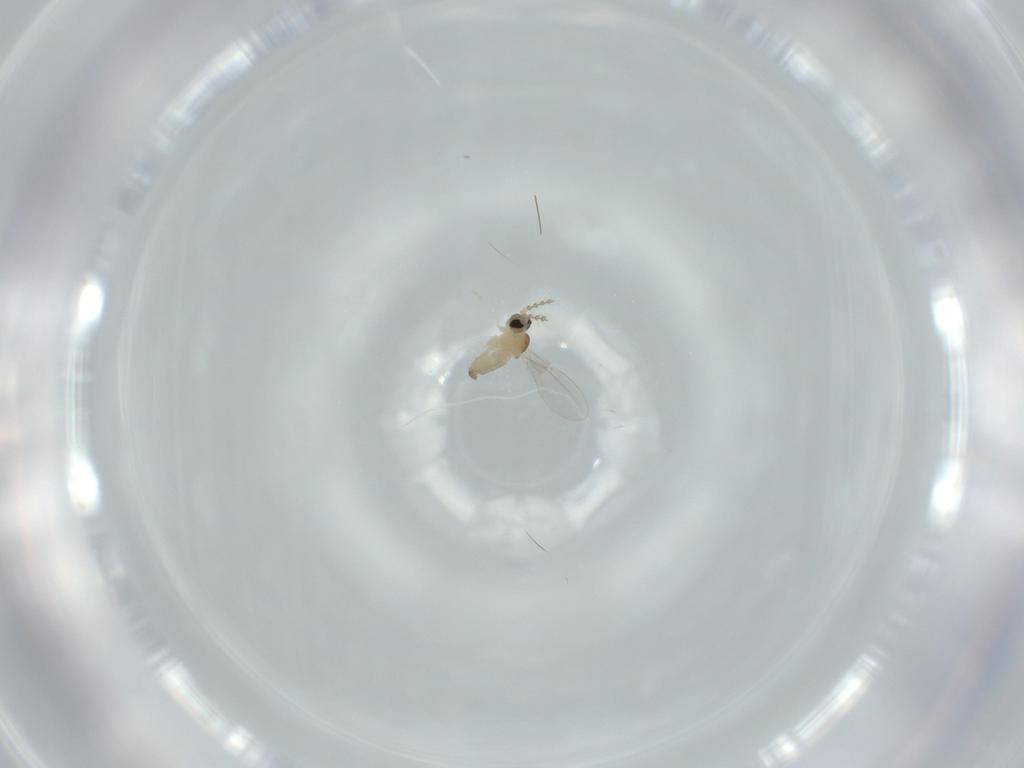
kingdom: Animalia
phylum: Arthropoda
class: Insecta
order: Diptera
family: Cecidomyiidae
